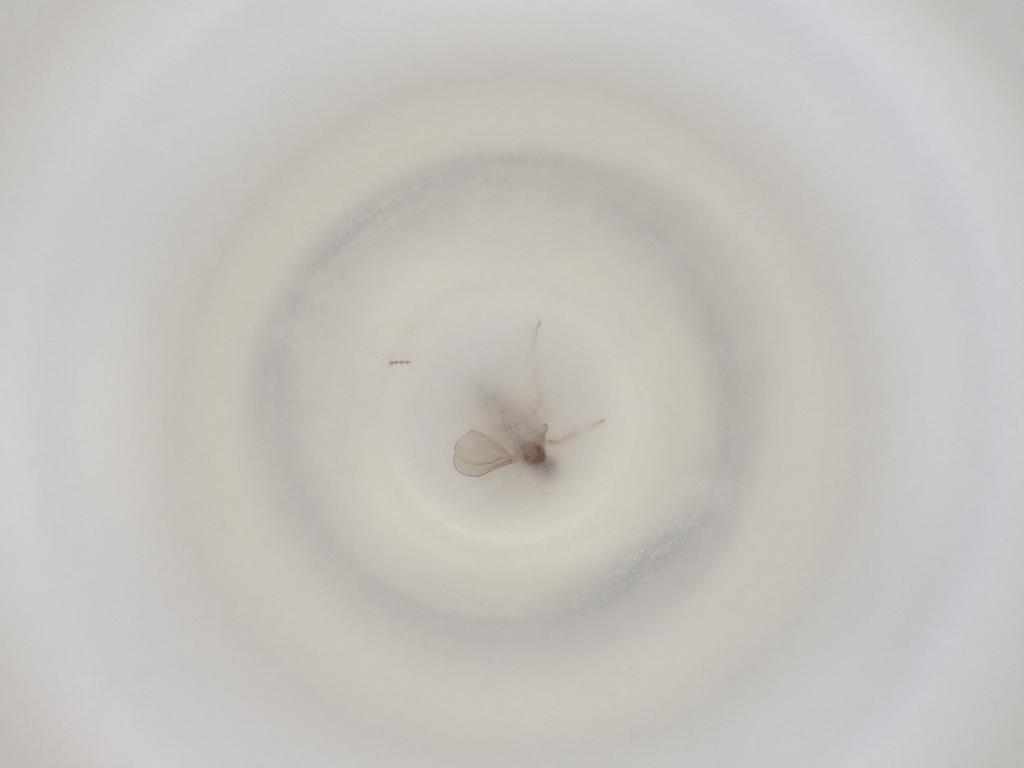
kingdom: Animalia
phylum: Arthropoda
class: Insecta
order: Diptera
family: Cecidomyiidae
